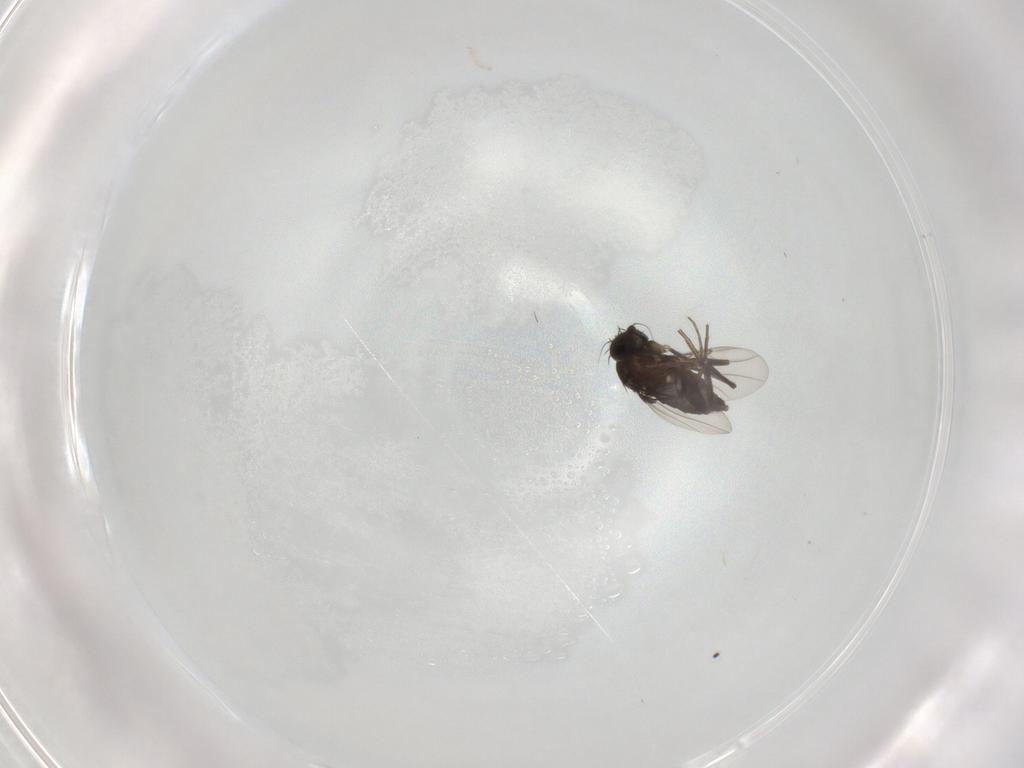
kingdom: Animalia
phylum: Arthropoda
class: Insecta
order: Diptera
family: Phoridae
